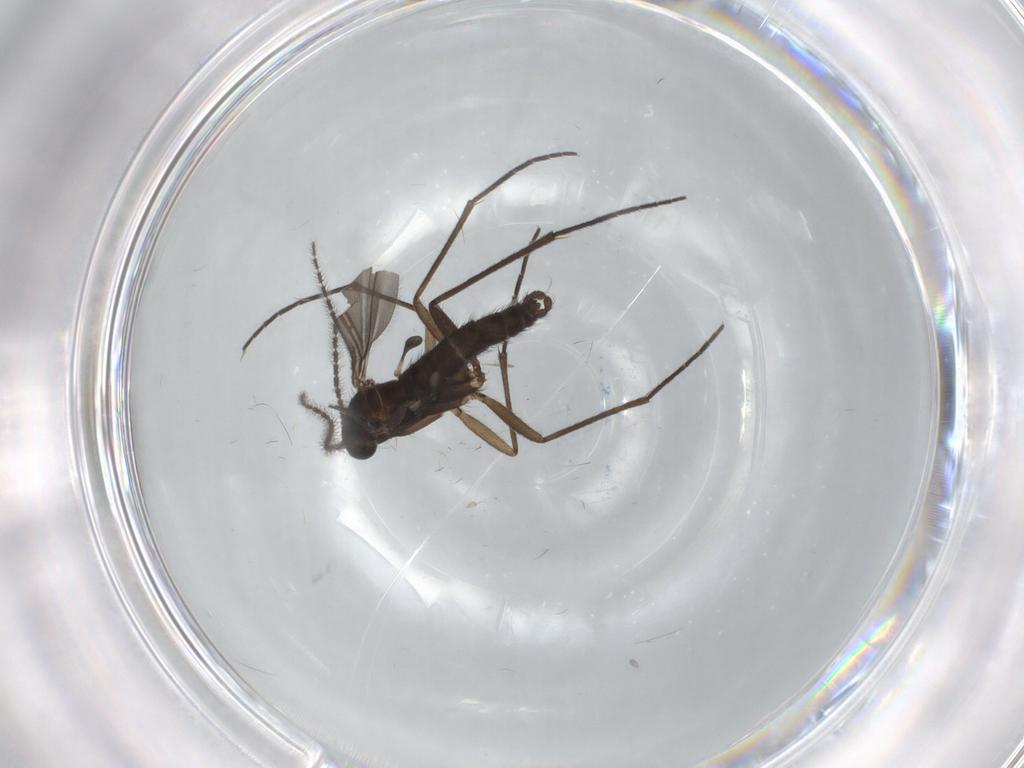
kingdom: Animalia
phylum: Arthropoda
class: Insecta
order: Diptera
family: Sciaridae
